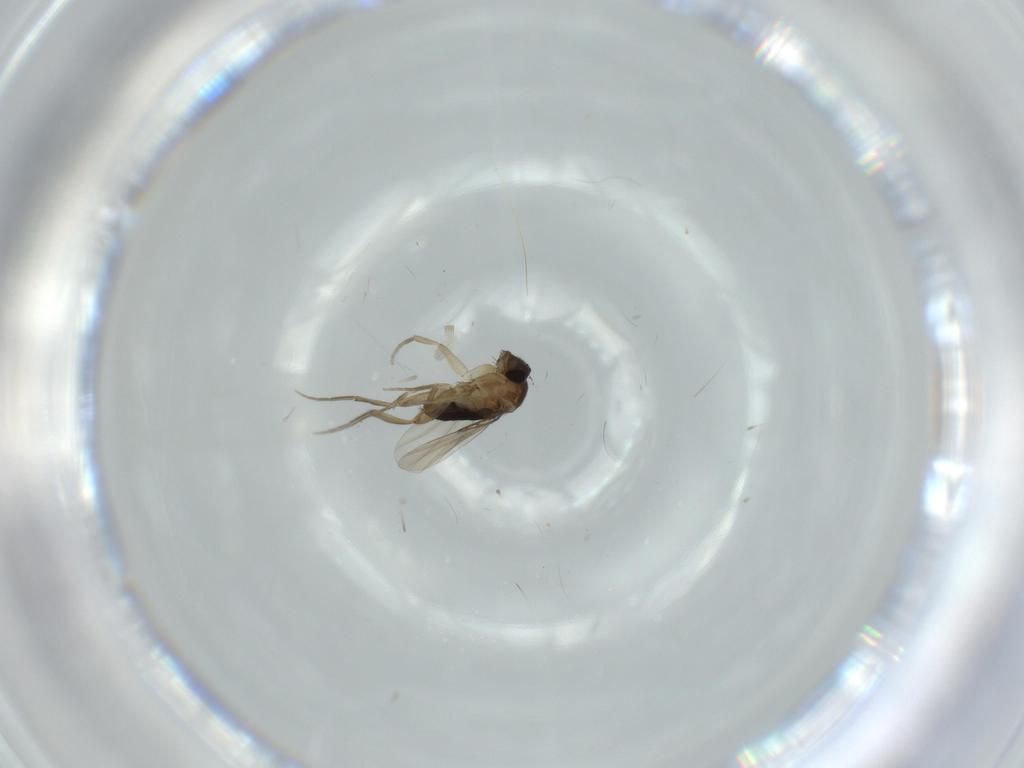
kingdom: Animalia
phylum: Arthropoda
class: Insecta
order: Diptera
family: Phoridae
